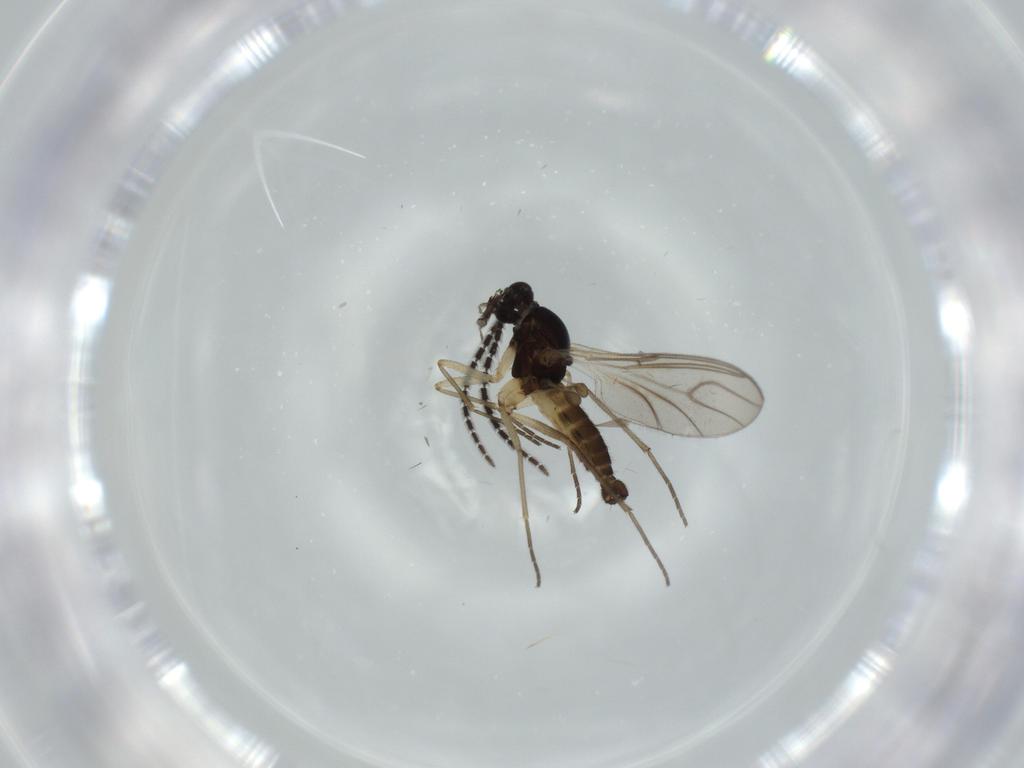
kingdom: Animalia
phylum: Arthropoda
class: Insecta
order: Diptera
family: Sciaridae
